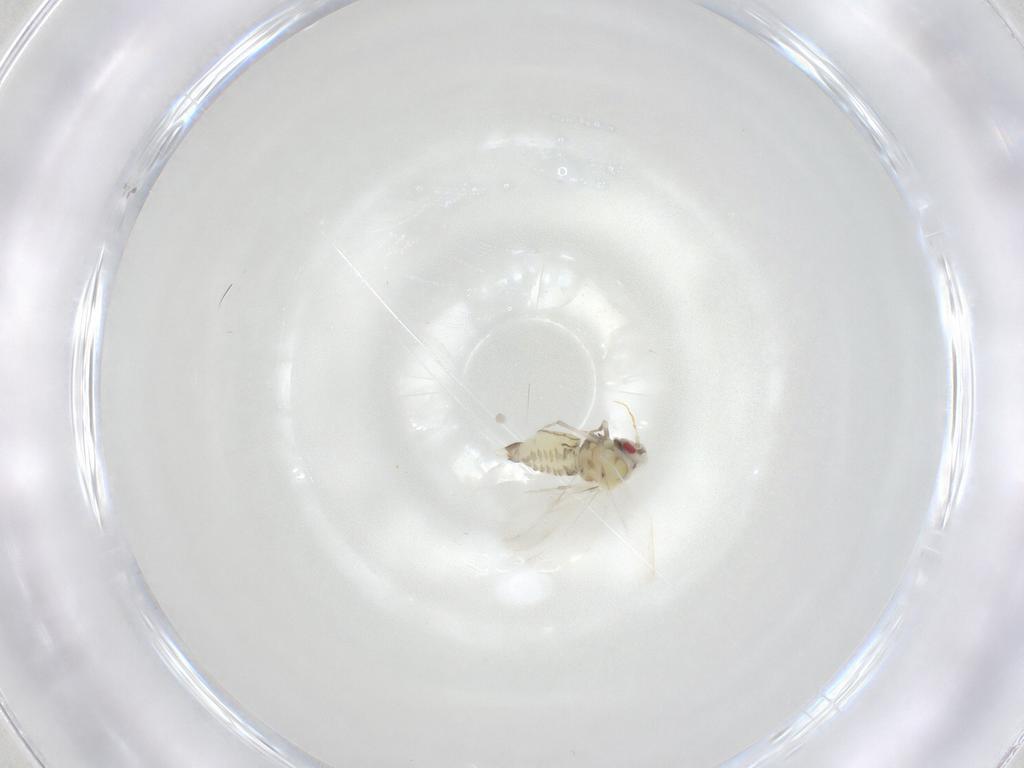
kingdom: Animalia
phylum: Arthropoda
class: Insecta
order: Hemiptera
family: Aleyrodidae
